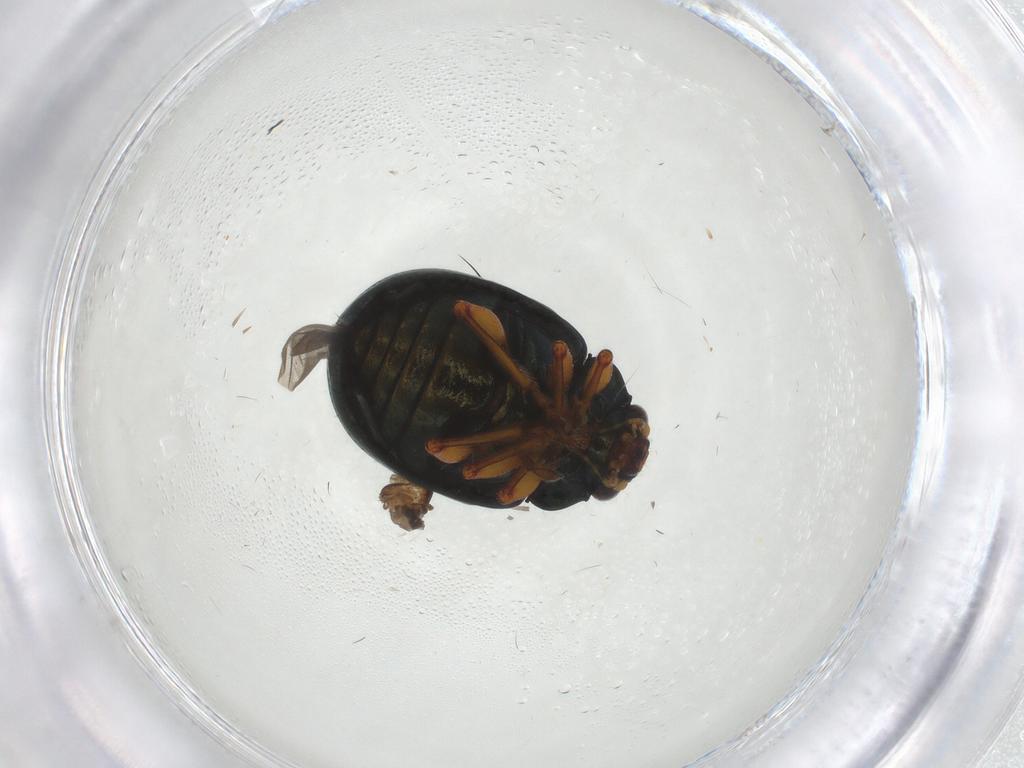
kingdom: Animalia
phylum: Arthropoda
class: Insecta
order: Coleoptera
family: Chrysomelidae
